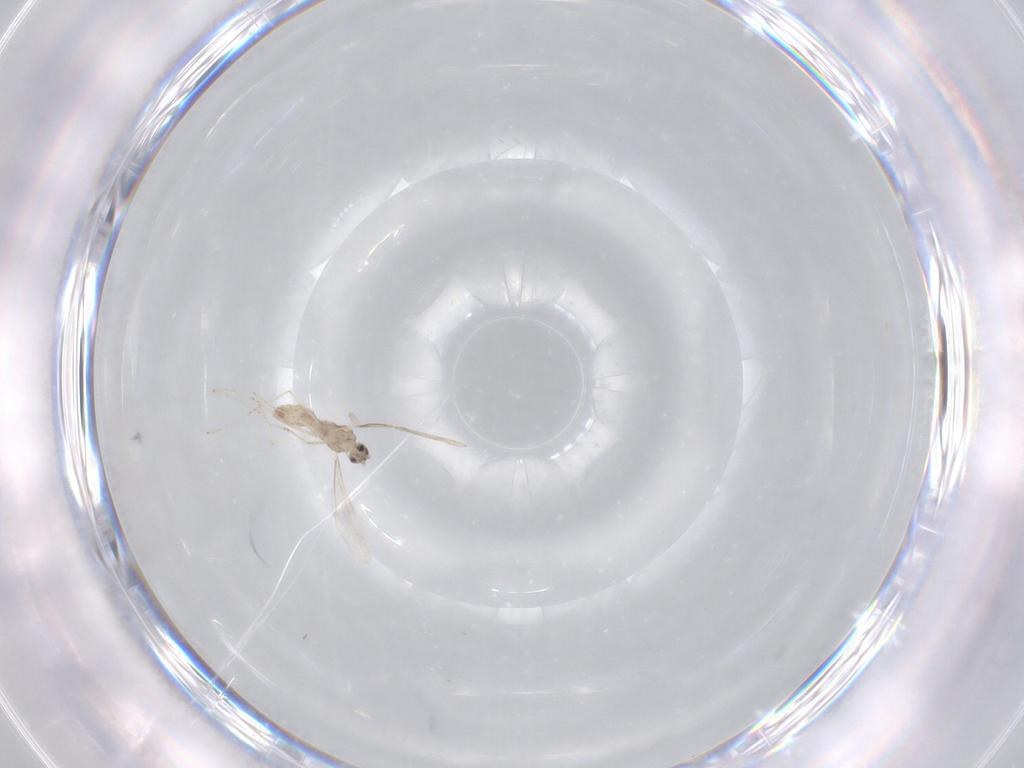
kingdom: Animalia
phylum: Arthropoda
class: Insecta
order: Diptera
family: Cecidomyiidae
